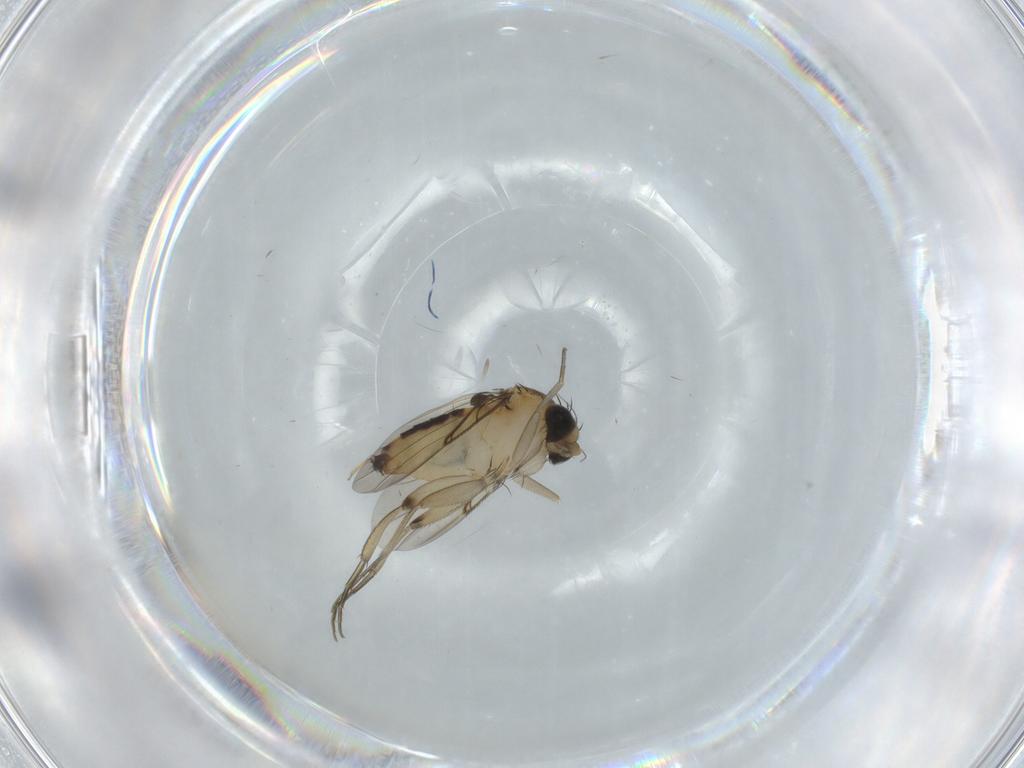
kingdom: Animalia
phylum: Arthropoda
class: Insecta
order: Diptera
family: Phoridae
